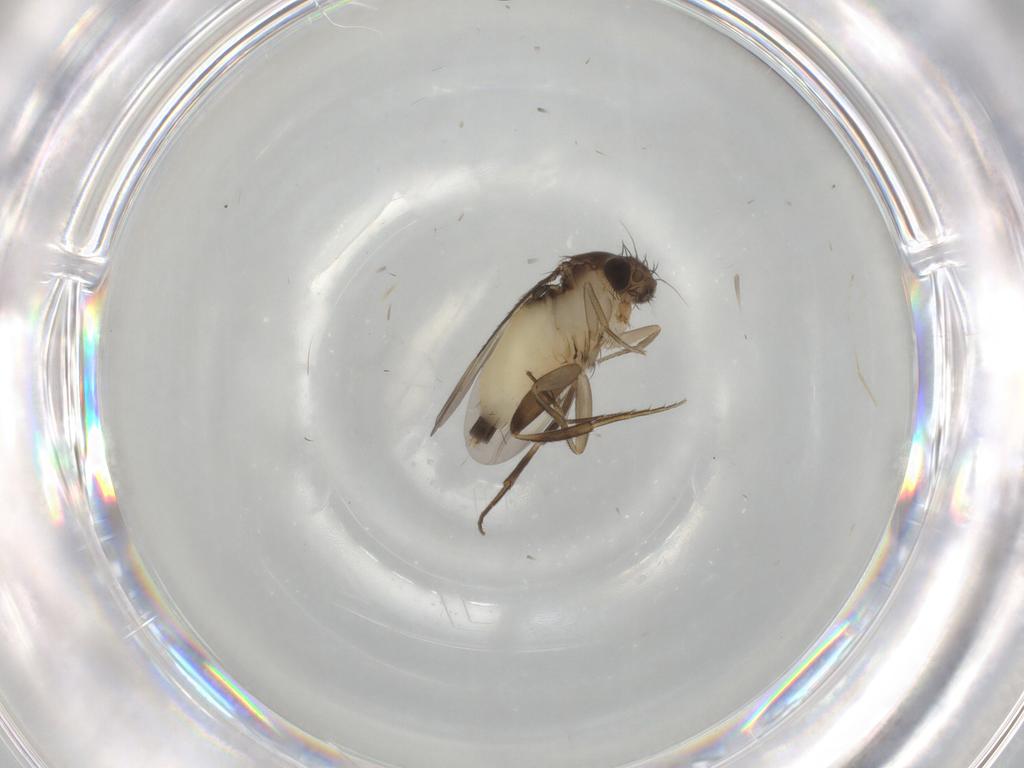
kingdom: Animalia
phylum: Arthropoda
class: Insecta
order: Diptera
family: Phoridae
